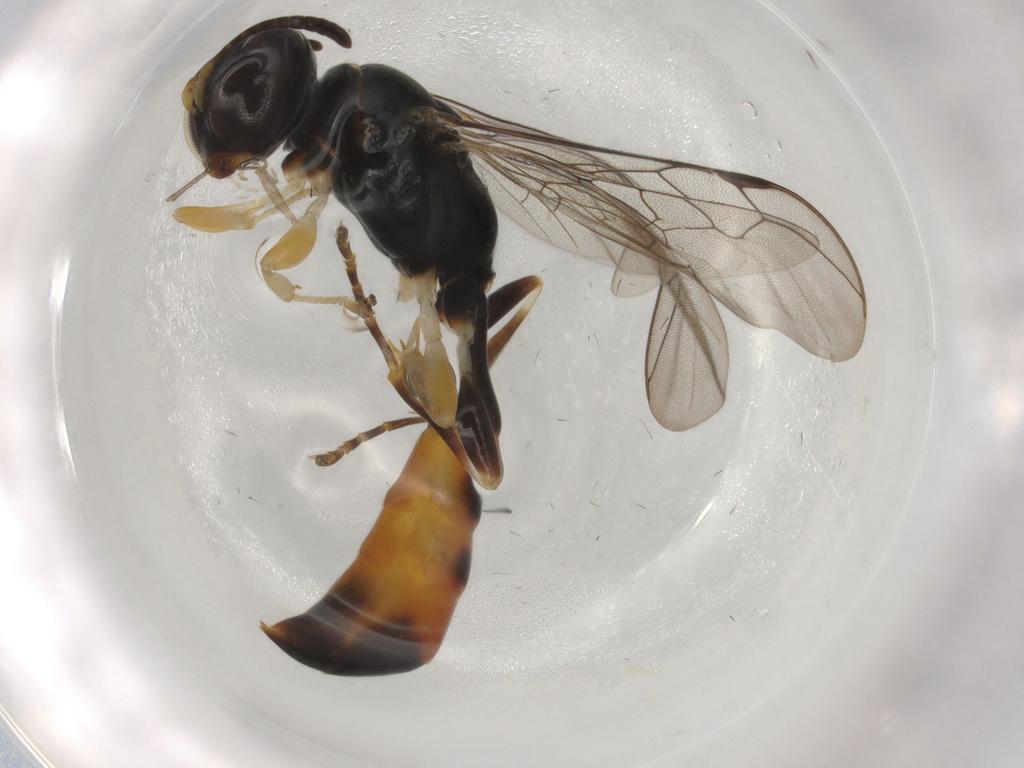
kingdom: Animalia
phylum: Arthropoda
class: Insecta
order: Hymenoptera
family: Crabronidae
